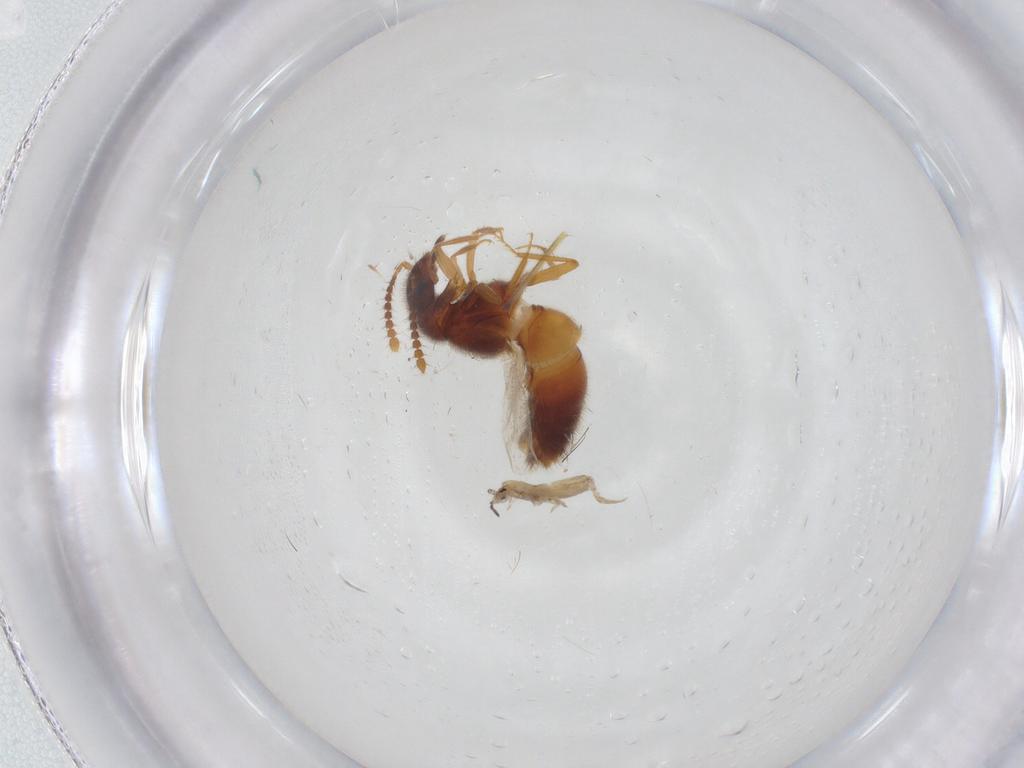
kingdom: Animalia
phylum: Arthropoda
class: Insecta
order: Coleoptera
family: Staphylinidae
